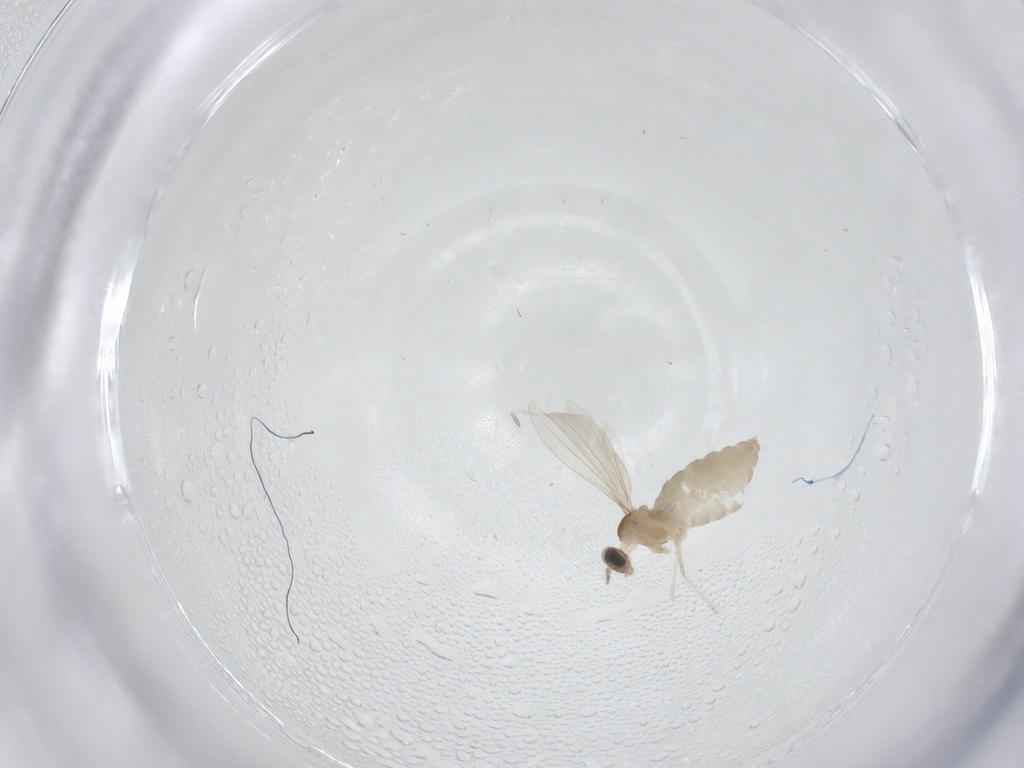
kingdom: Animalia
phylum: Arthropoda
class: Insecta
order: Diptera
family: Cecidomyiidae
